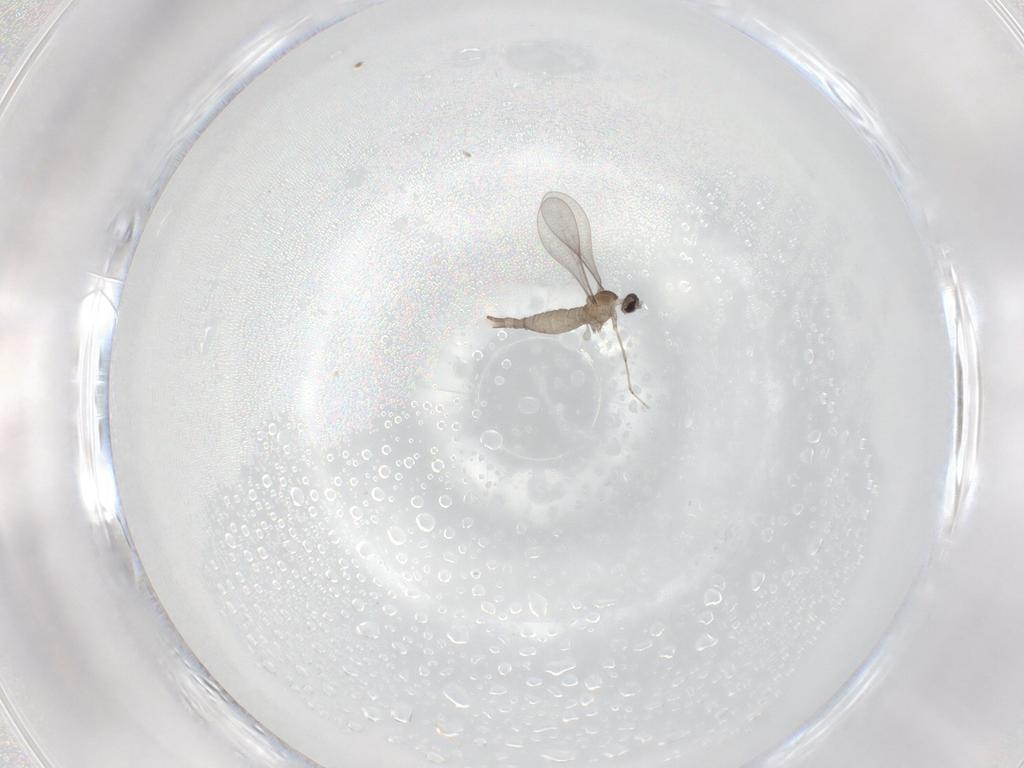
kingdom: Animalia
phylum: Arthropoda
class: Insecta
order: Diptera
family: Cecidomyiidae
